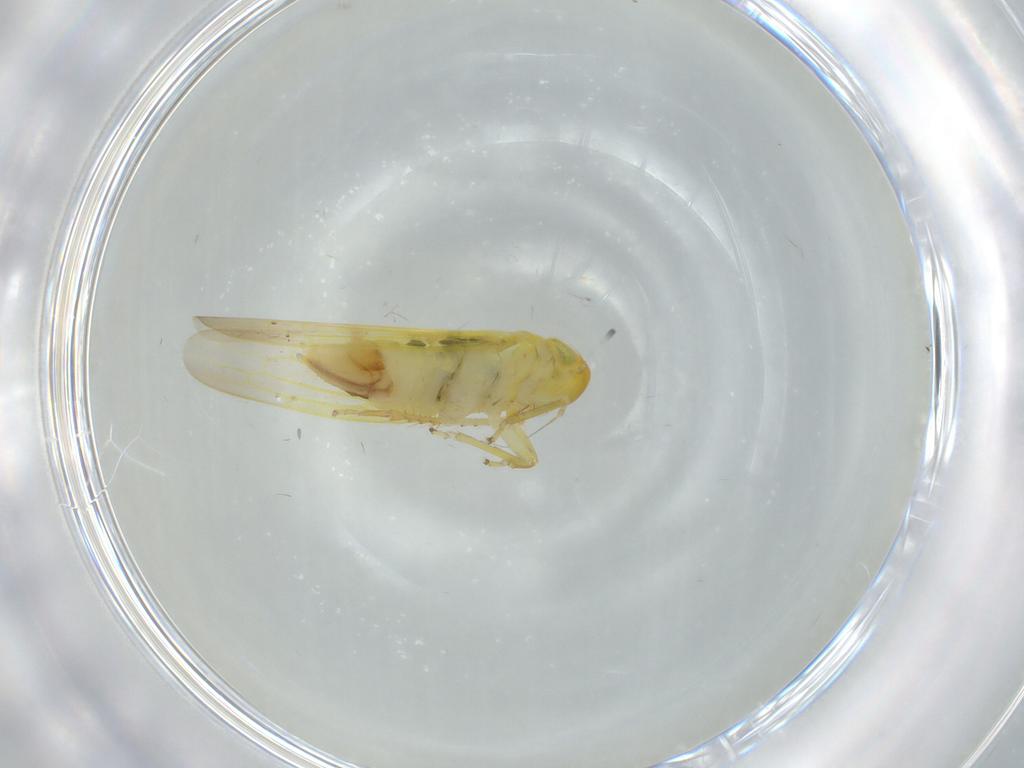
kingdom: Animalia
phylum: Arthropoda
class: Insecta
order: Hemiptera
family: Cicadellidae
